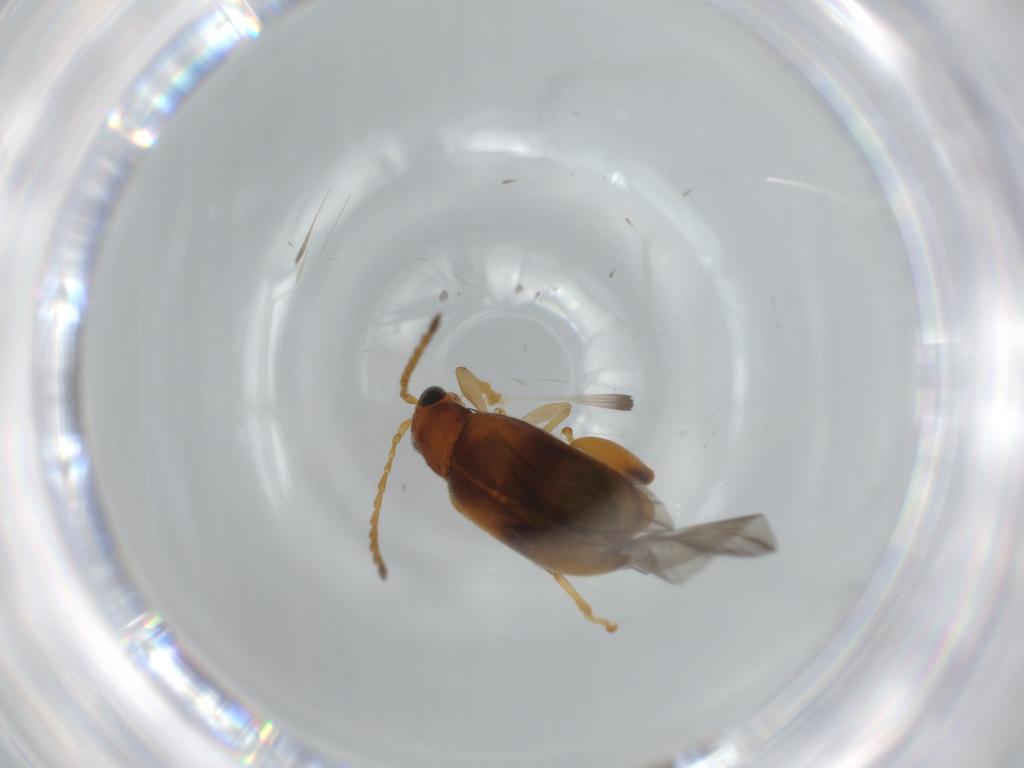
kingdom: Animalia
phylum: Arthropoda
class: Insecta
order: Coleoptera
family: Chrysomelidae
